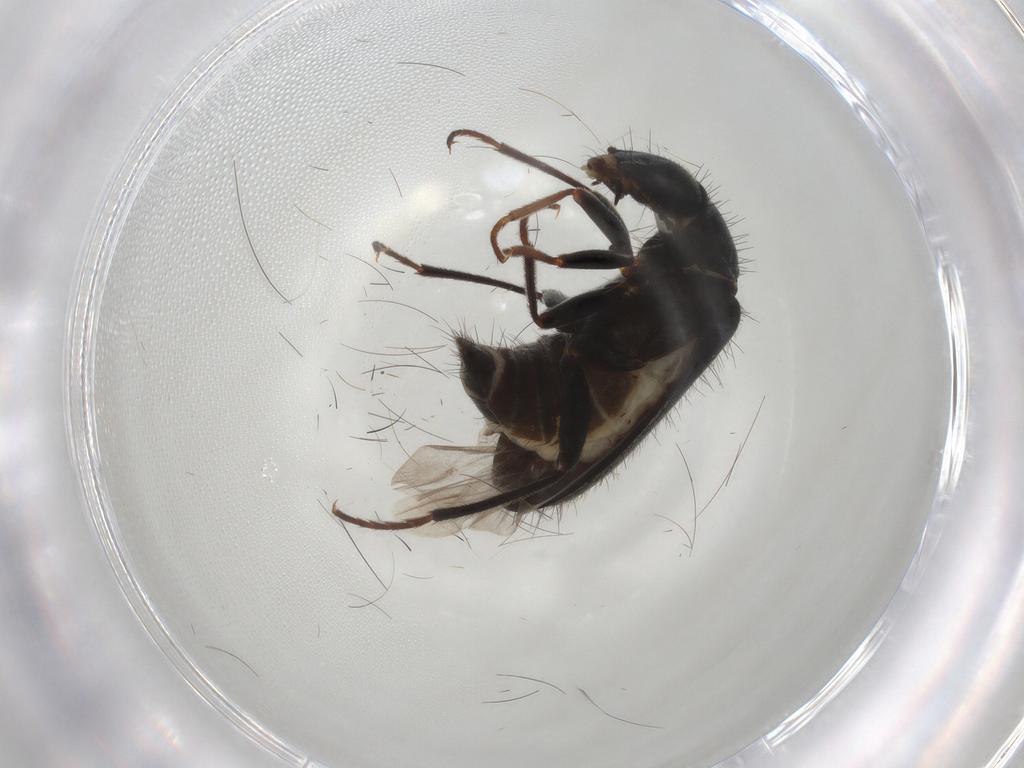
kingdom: Animalia
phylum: Arthropoda
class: Insecta
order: Coleoptera
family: Melyridae
